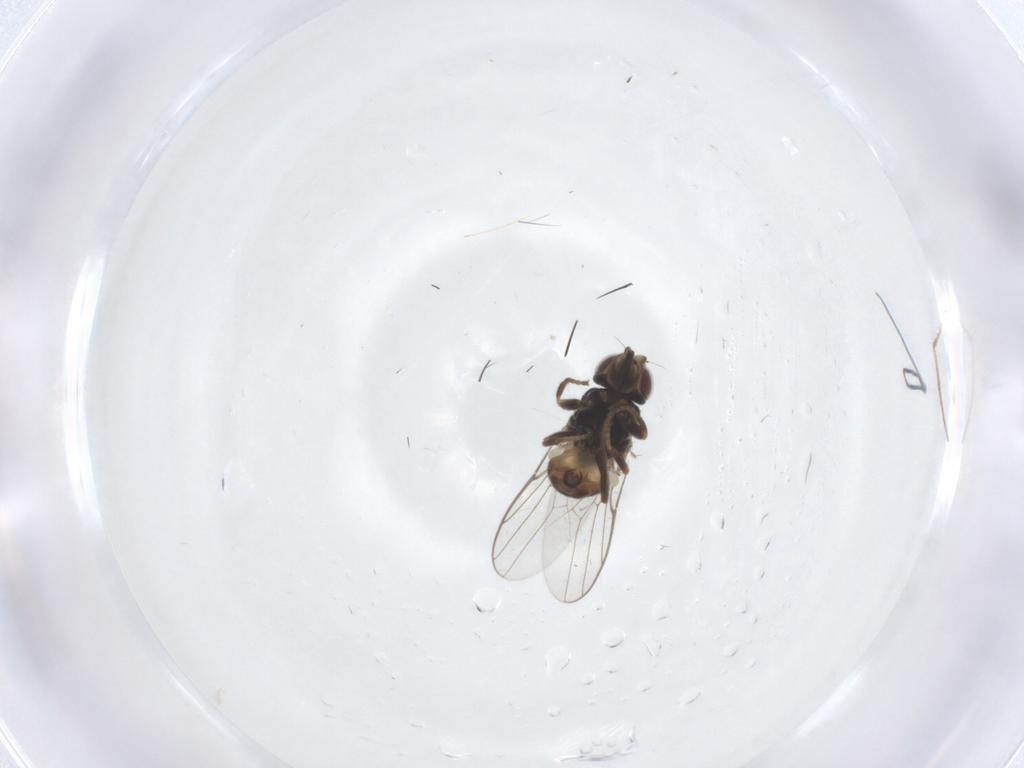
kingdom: Animalia
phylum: Arthropoda
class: Insecta
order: Diptera
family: Chloropidae
